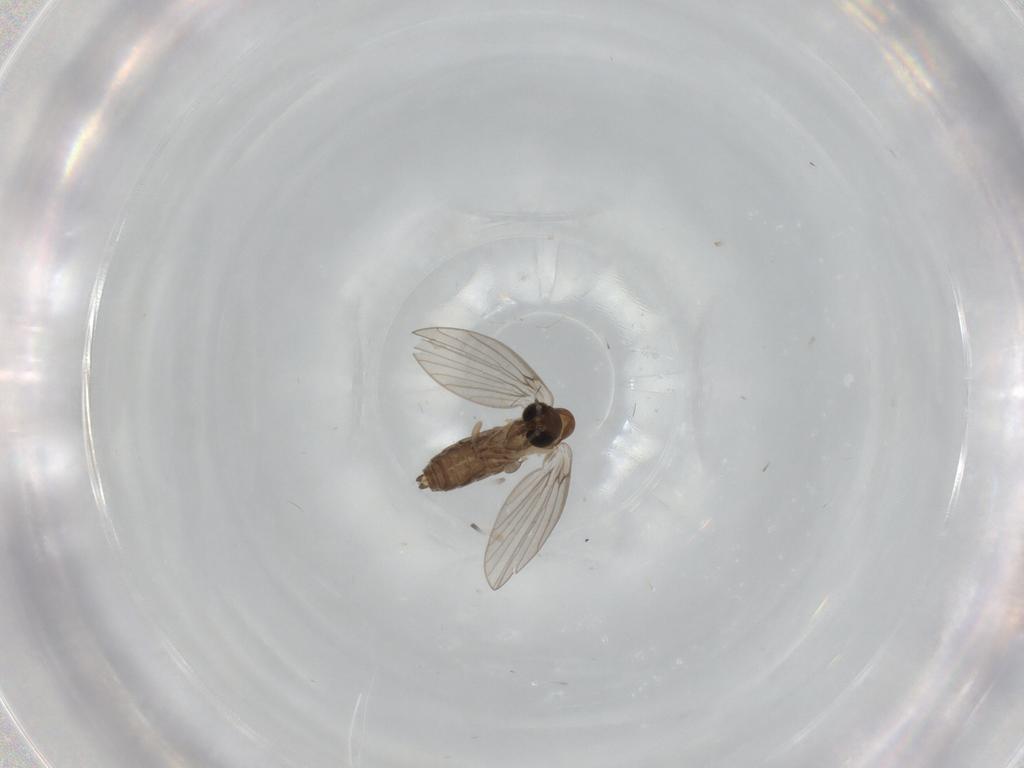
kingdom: Animalia
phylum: Arthropoda
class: Insecta
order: Diptera
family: Psychodidae
